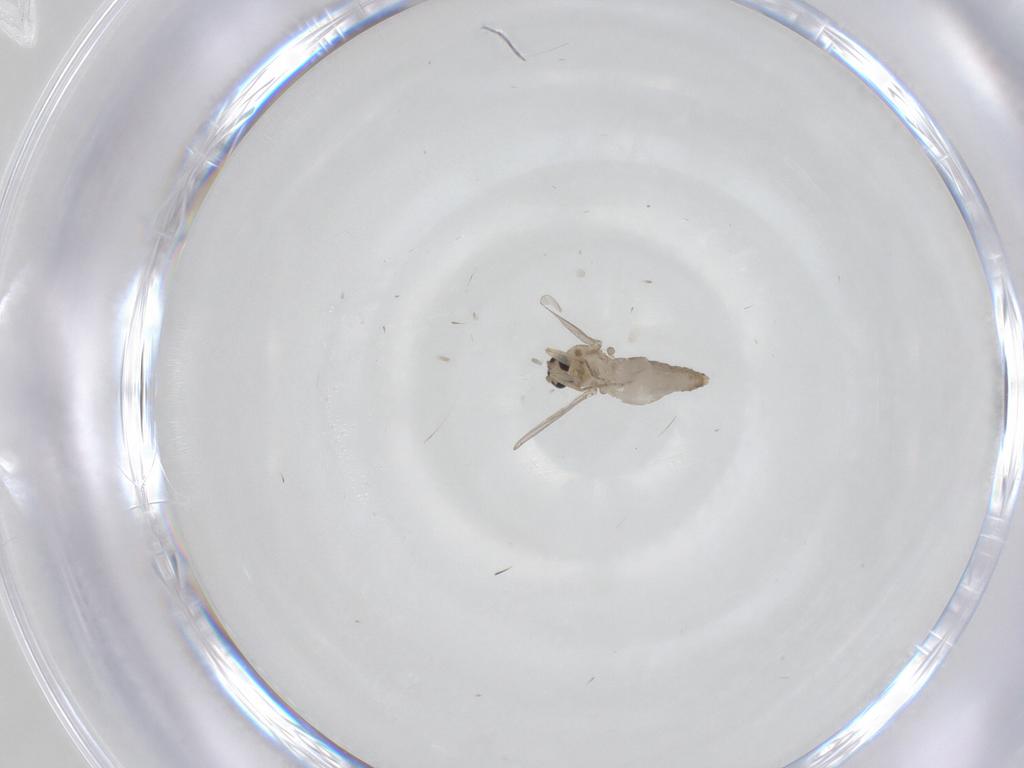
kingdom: Animalia
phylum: Arthropoda
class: Insecta
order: Diptera
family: Ceratopogonidae
